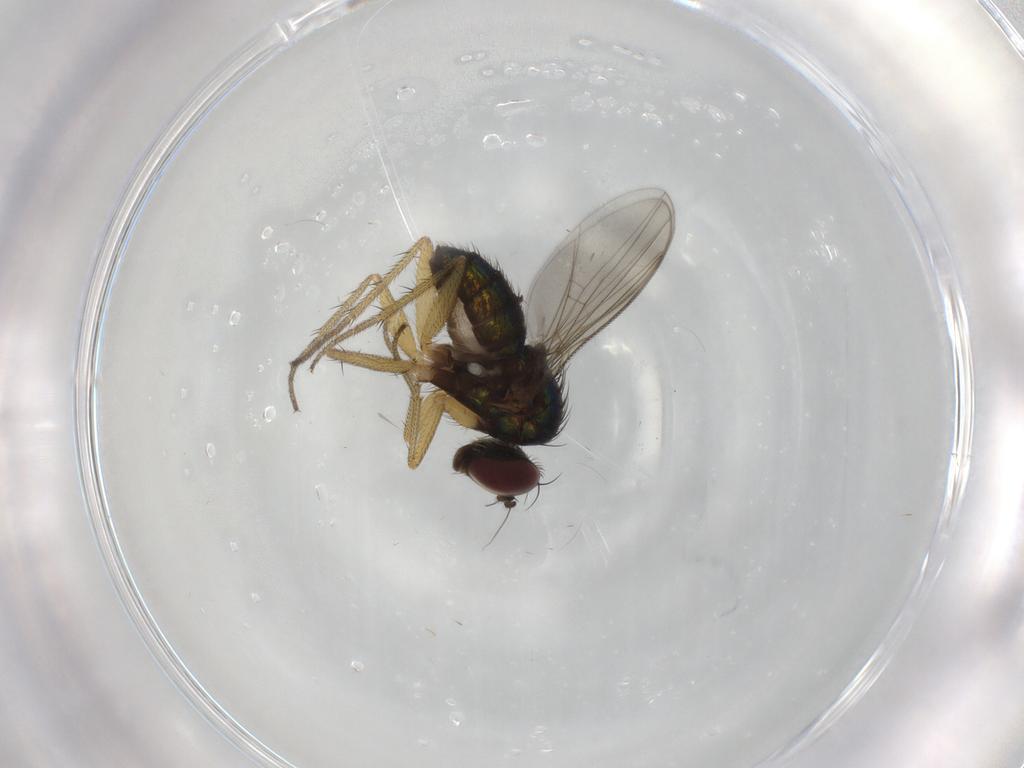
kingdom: Animalia
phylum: Arthropoda
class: Insecta
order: Diptera
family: Dolichopodidae
